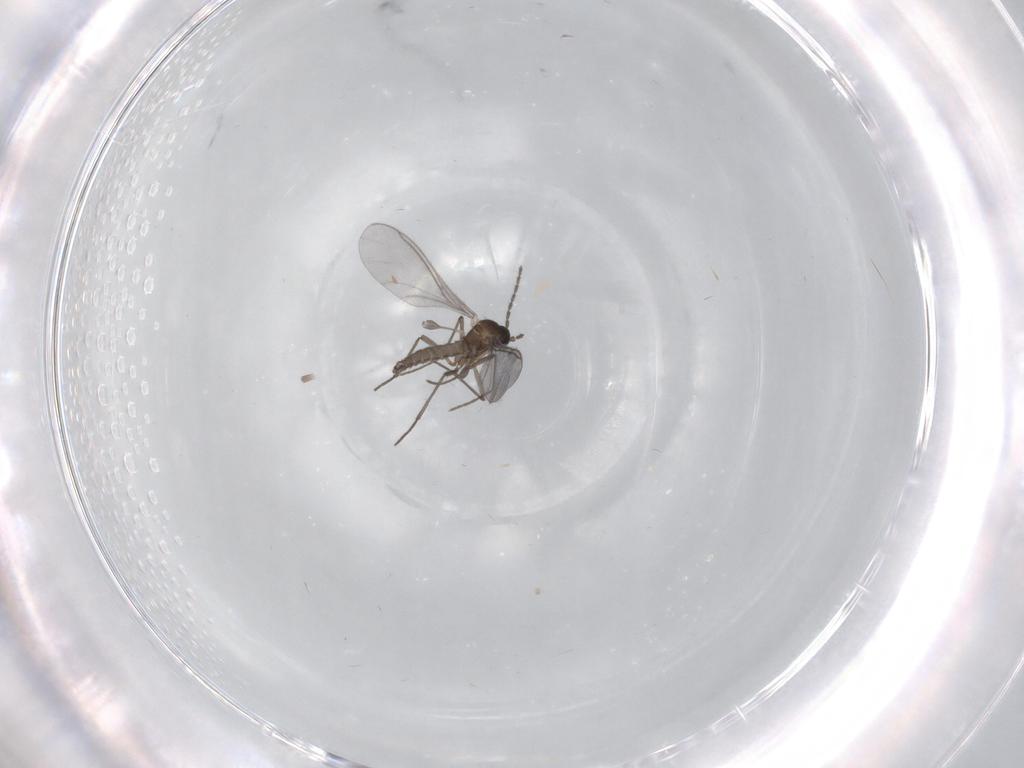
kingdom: Animalia
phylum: Arthropoda
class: Insecta
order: Diptera
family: Sciaridae
